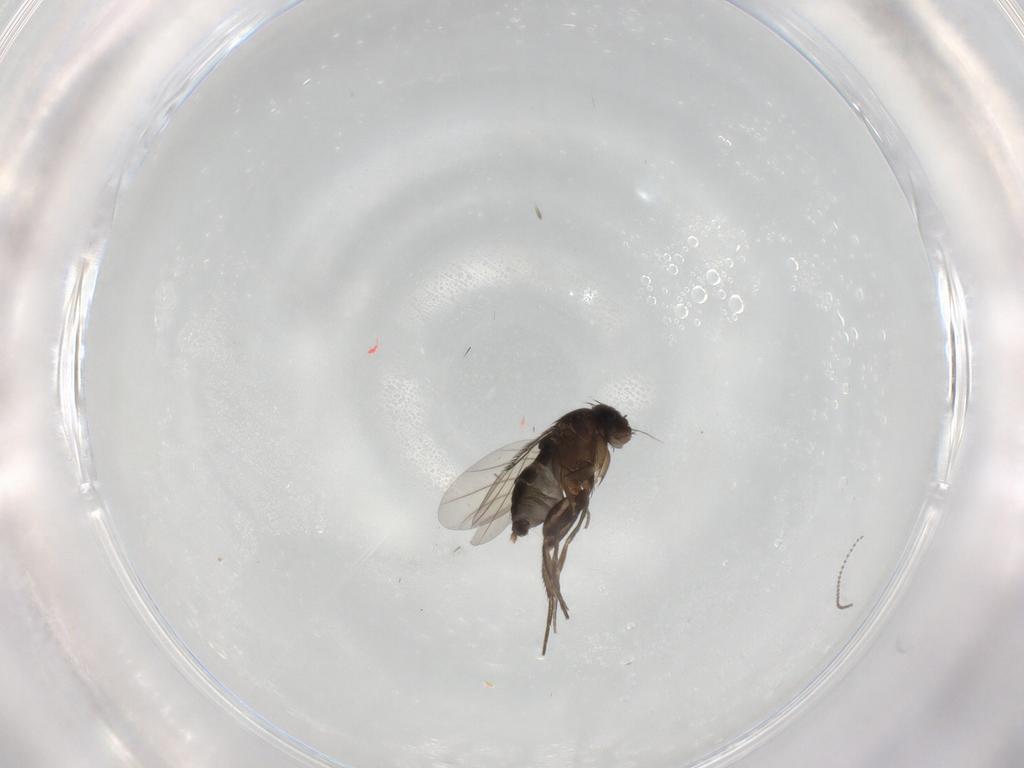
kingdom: Animalia
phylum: Arthropoda
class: Insecta
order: Diptera
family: Phoridae
